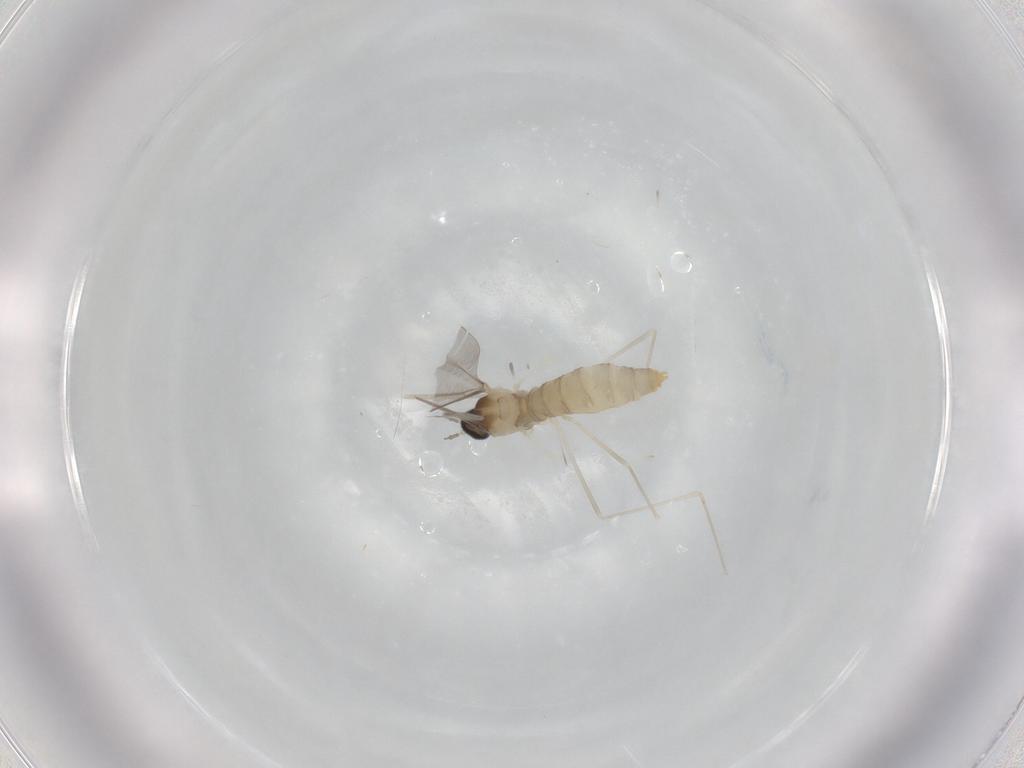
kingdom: Animalia
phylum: Arthropoda
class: Insecta
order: Diptera
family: Cecidomyiidae
